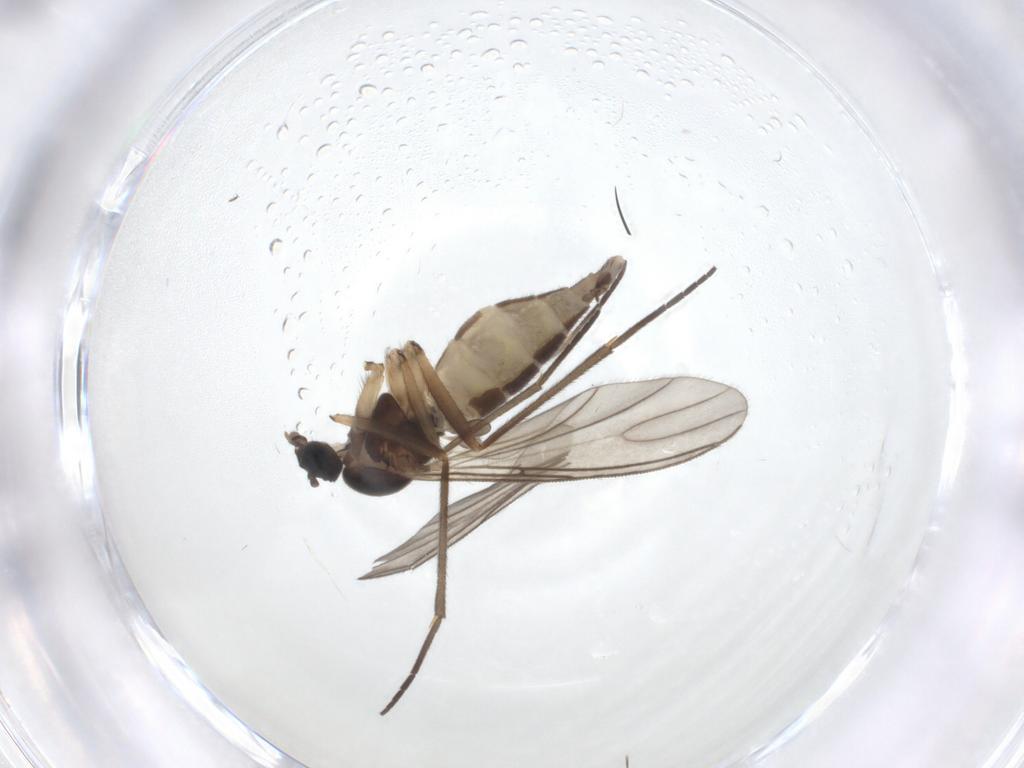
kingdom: Animalia
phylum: Arthropoda
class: Insecta
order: Diptera
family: Sciaridae
